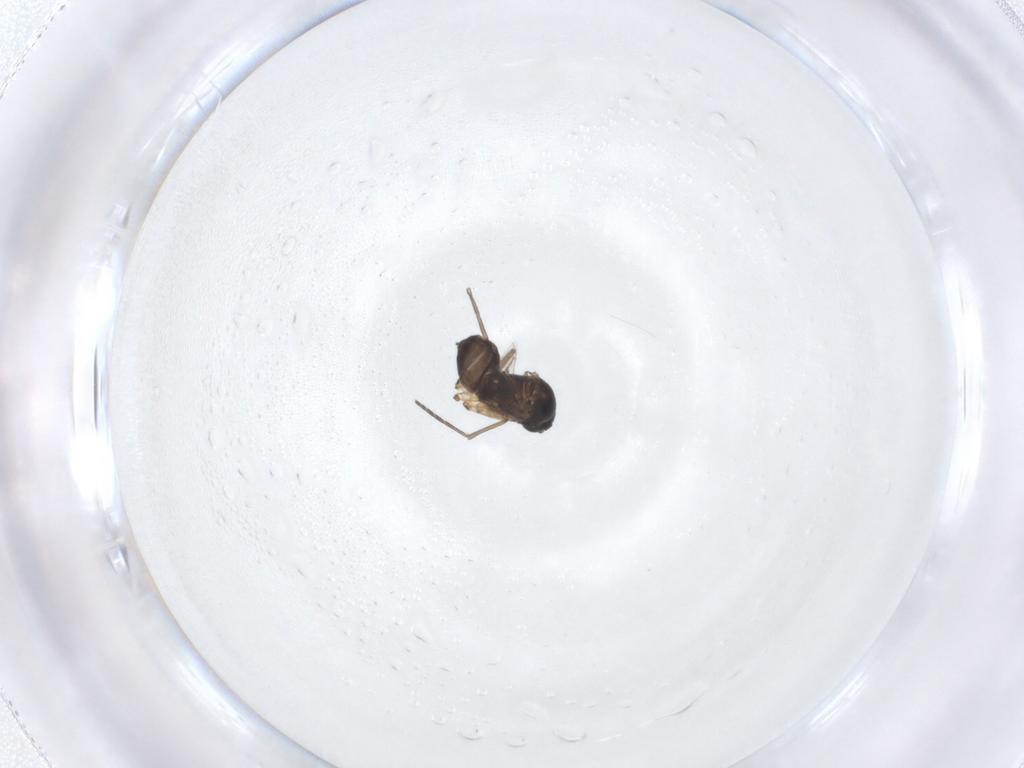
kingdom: Animalia
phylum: Arthropoda
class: Insecta
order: Diptera
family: Sciaridae
